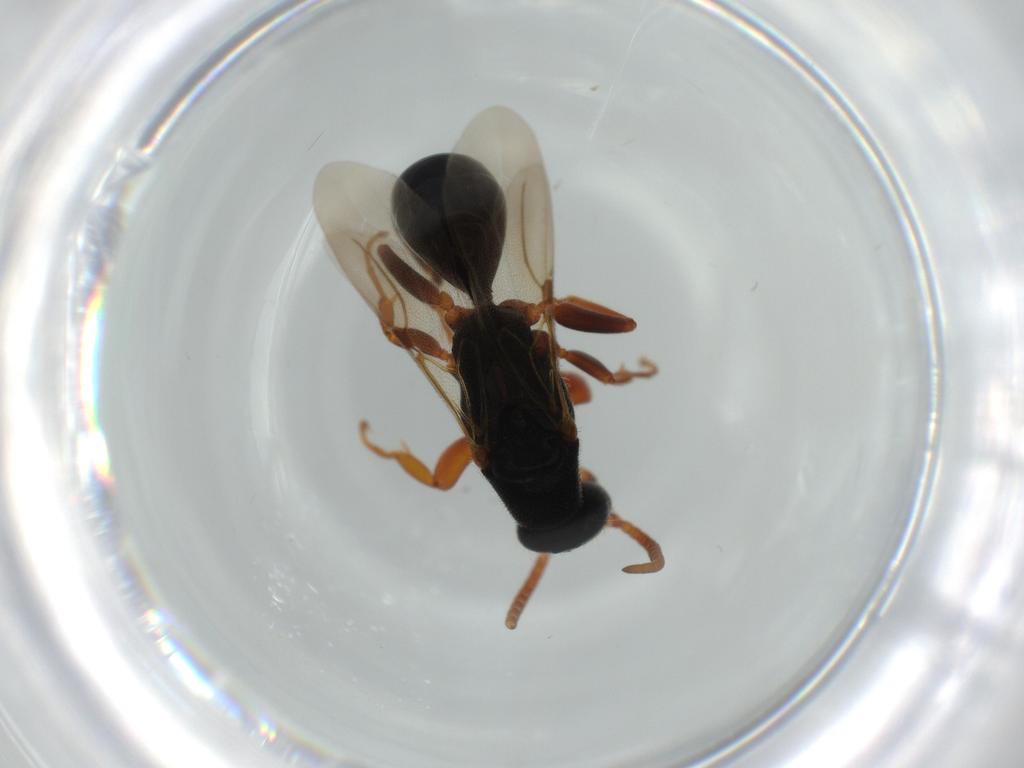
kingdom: Animalia
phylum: Arthropoda
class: Insecta
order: Hymenoptera
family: Bethylidae
